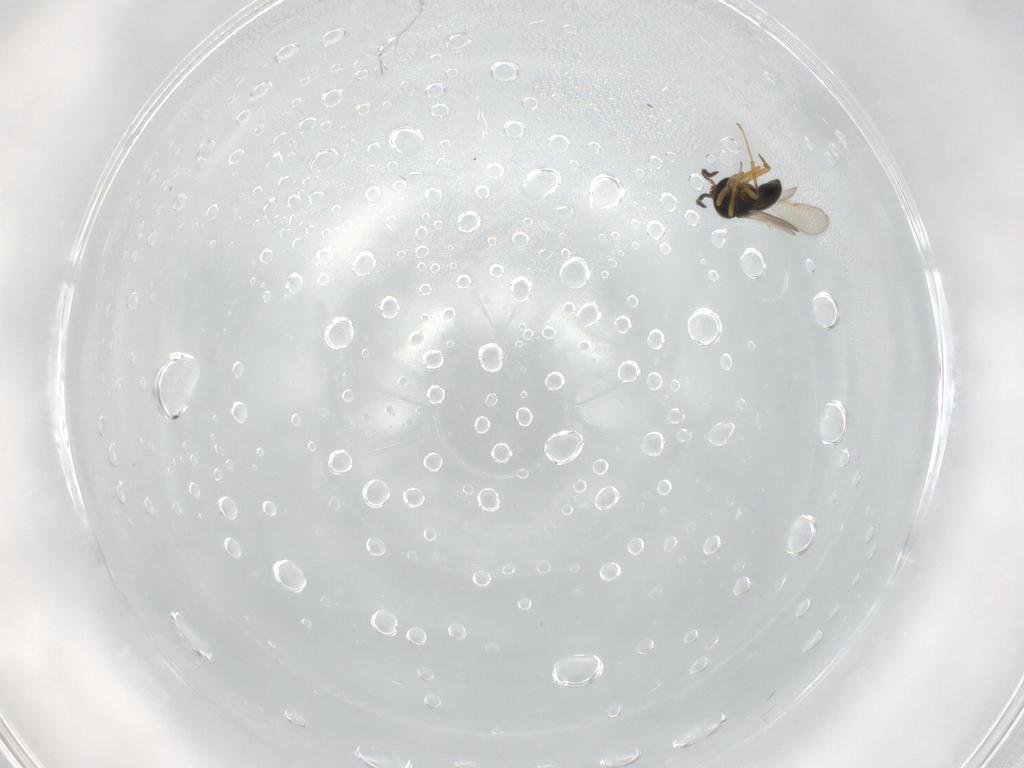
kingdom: Animalia
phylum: Arthropoda
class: Insecta
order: Hymenoptera
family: Scelionidae
